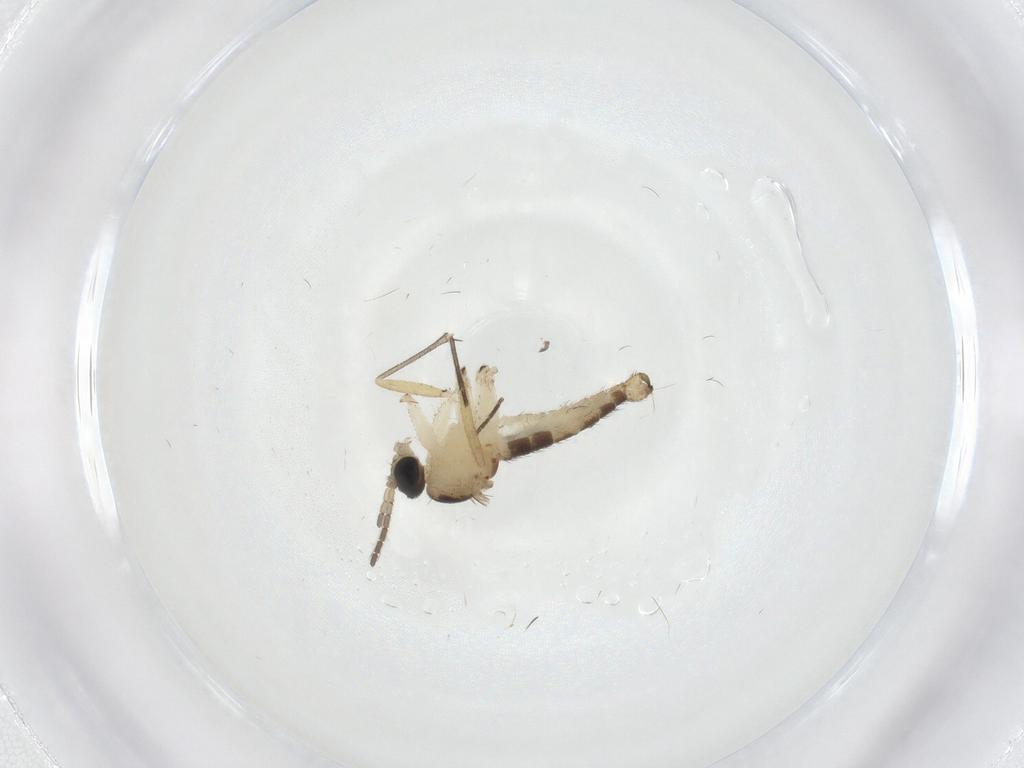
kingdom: Animalia
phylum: Arthropoda
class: Insecta
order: Diptera
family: Sciaridae
